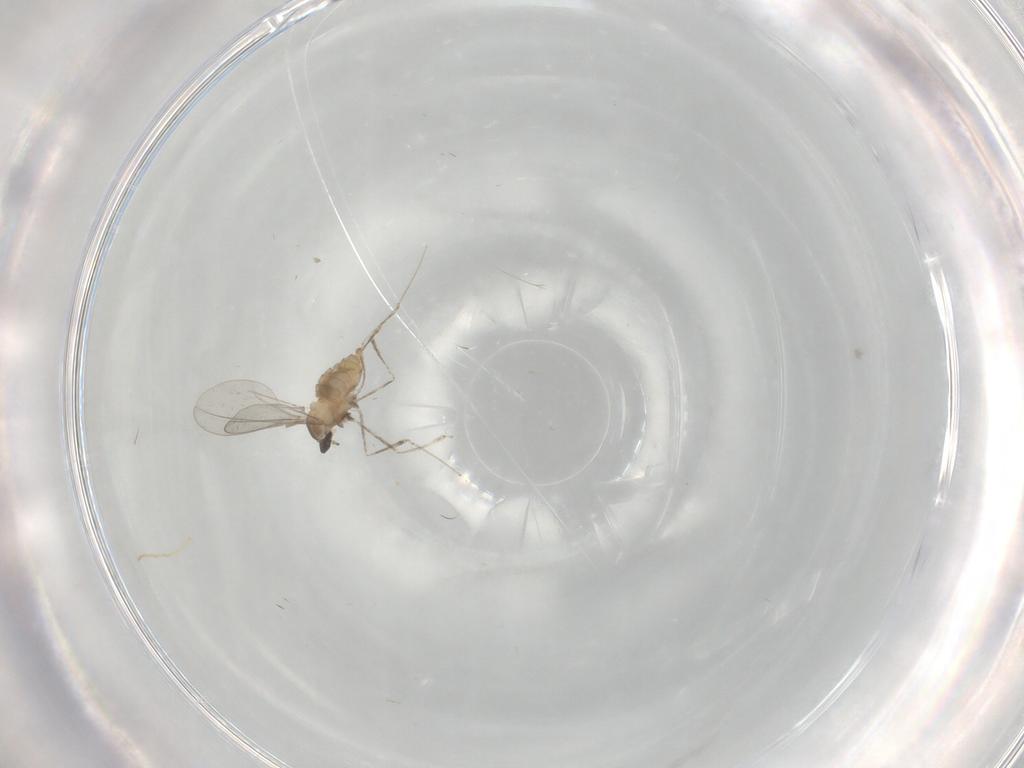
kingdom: Animalia
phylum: Arthropoda
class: Insecta
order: Diptera
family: Cecidomyiidae
